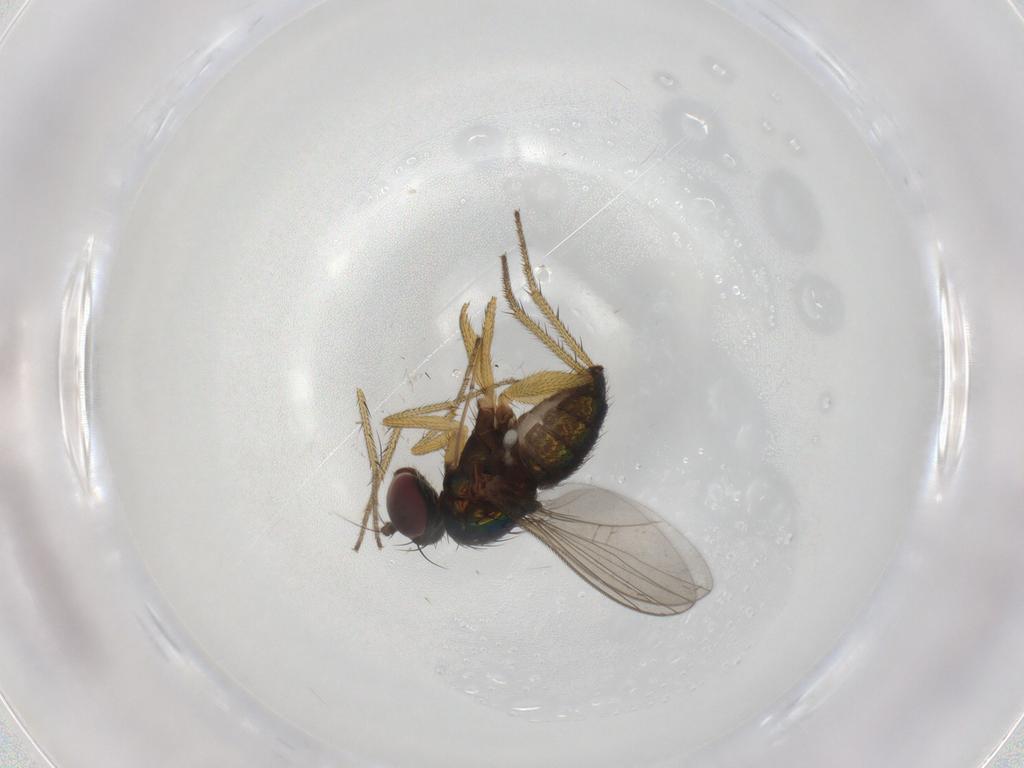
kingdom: Animalia
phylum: Arthropoda
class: Insecta
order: Diptera
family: Dolichopodidae
